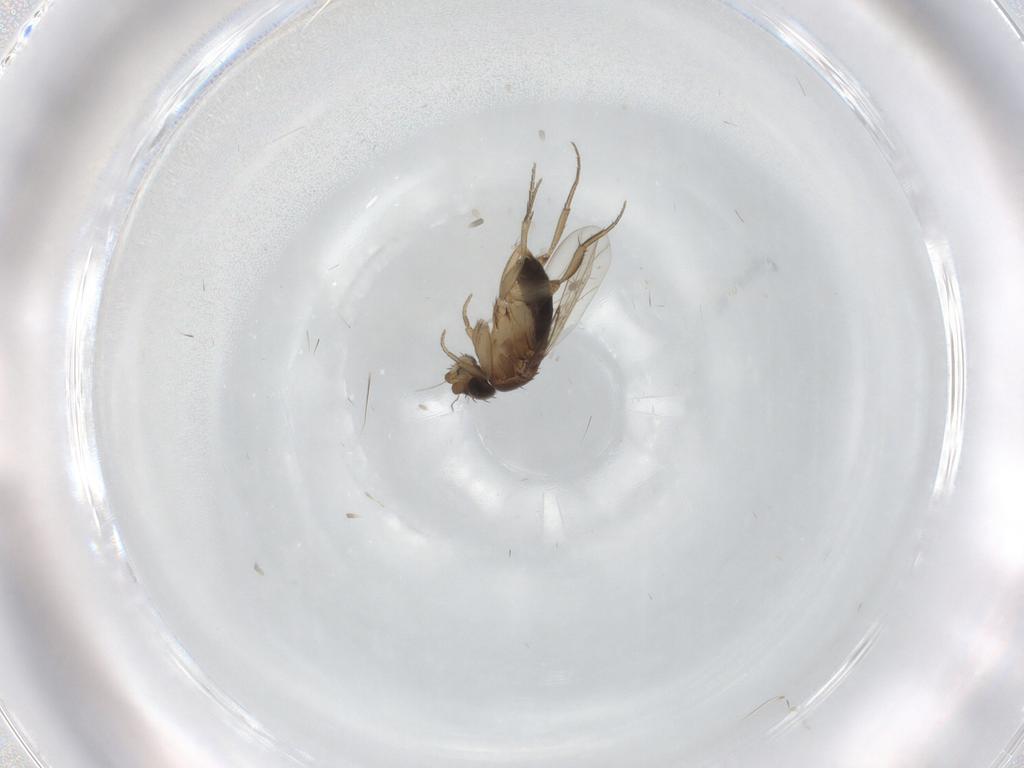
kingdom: Animalia
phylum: Arthropoda
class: Insecta
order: Diptera
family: Phoridae
